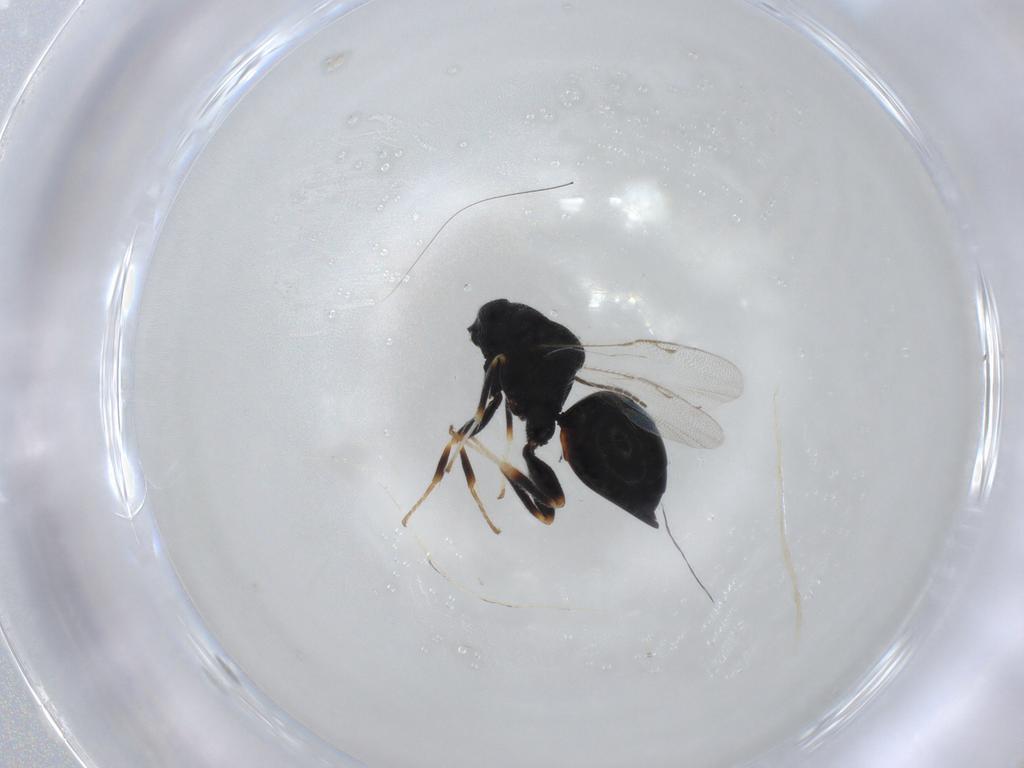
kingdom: Animalia
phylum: Arthropoda
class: Insecta
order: Hymenoptera
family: Eurytomidae
